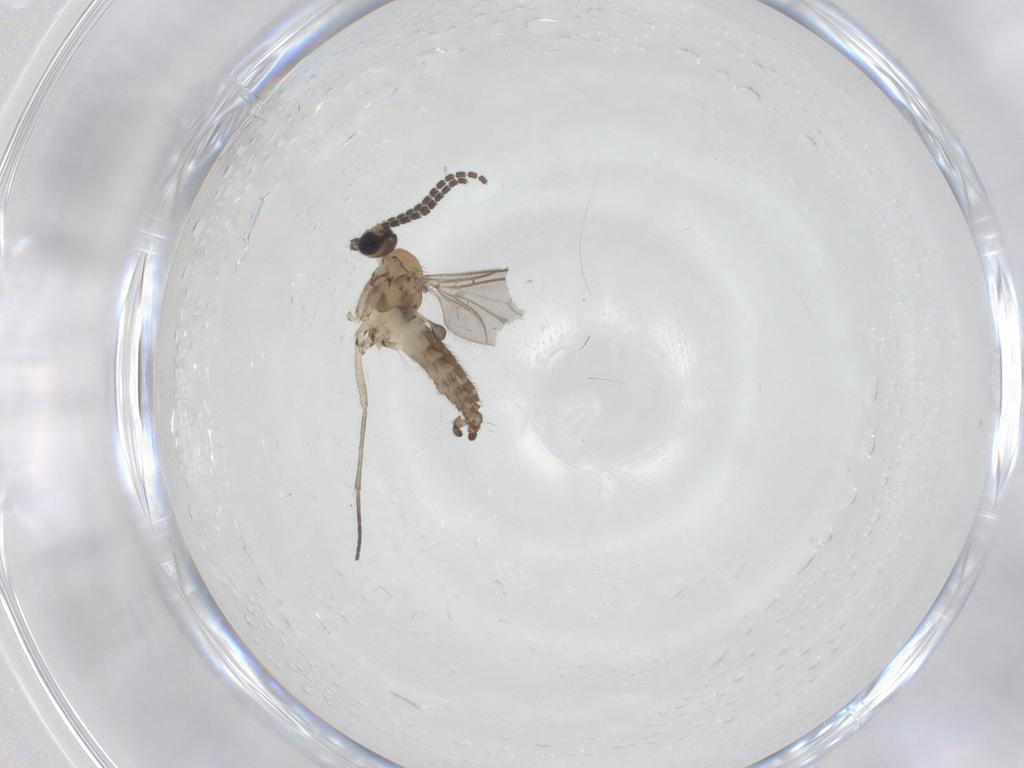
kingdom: Animalia
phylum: Arthropoda
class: Insecta
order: Diptera
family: Sciaridae
